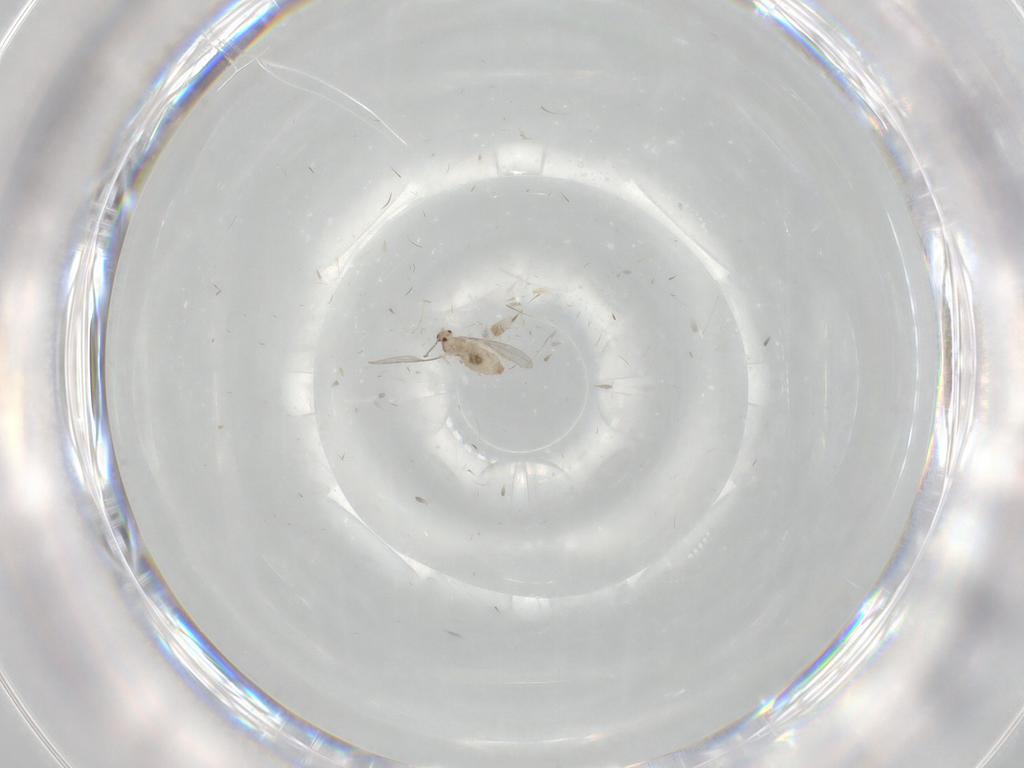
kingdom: Animalia
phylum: Arthropoda
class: Insecta
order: Diptera
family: Cecidomyiidae
